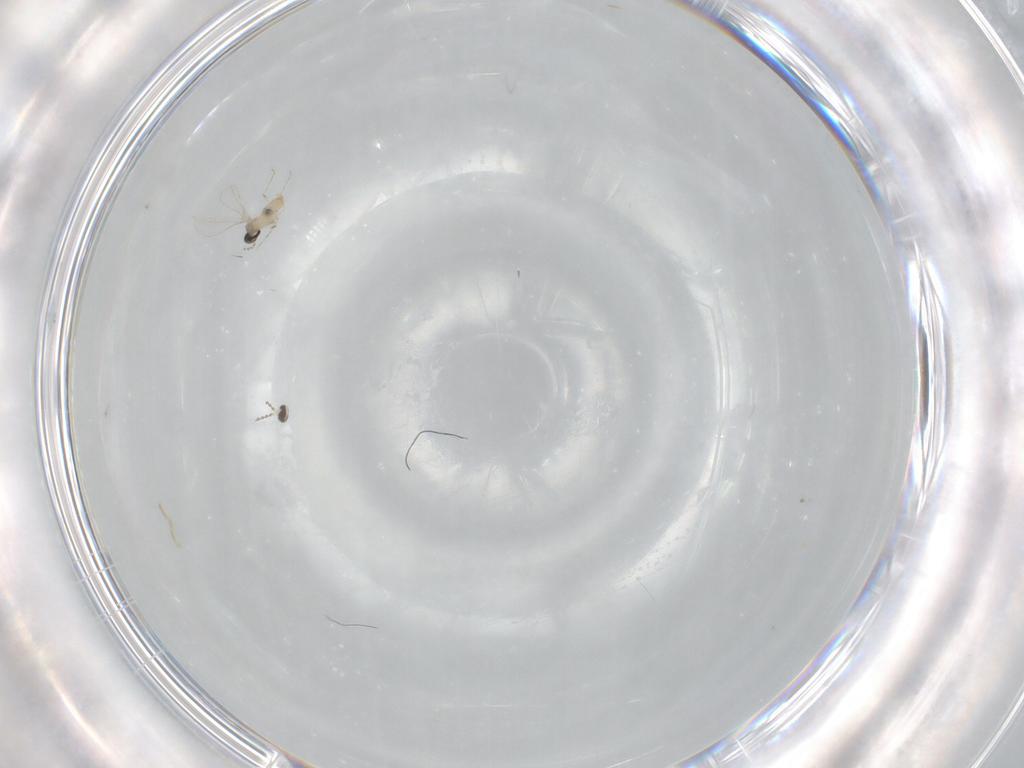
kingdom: Animalia
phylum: Arthropoda
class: Insecta
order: Diptera
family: Cecidomyiidae
